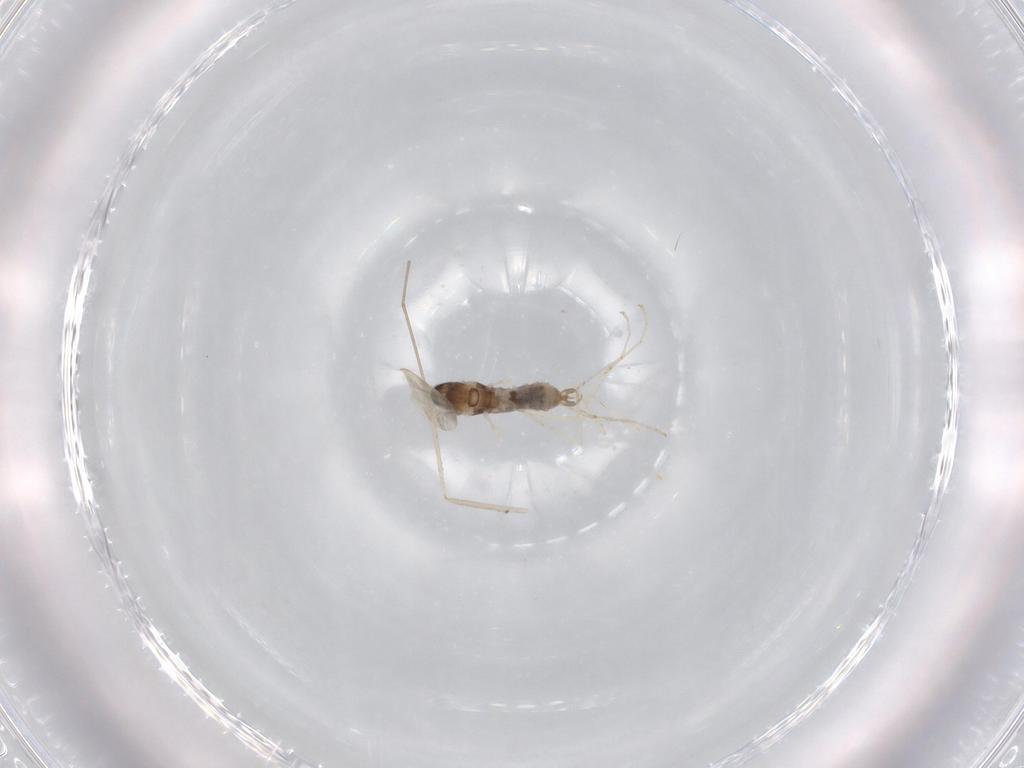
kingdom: Animalia
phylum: Arthropoda
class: Insecta
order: Diptera
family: Cecidomyiidae
